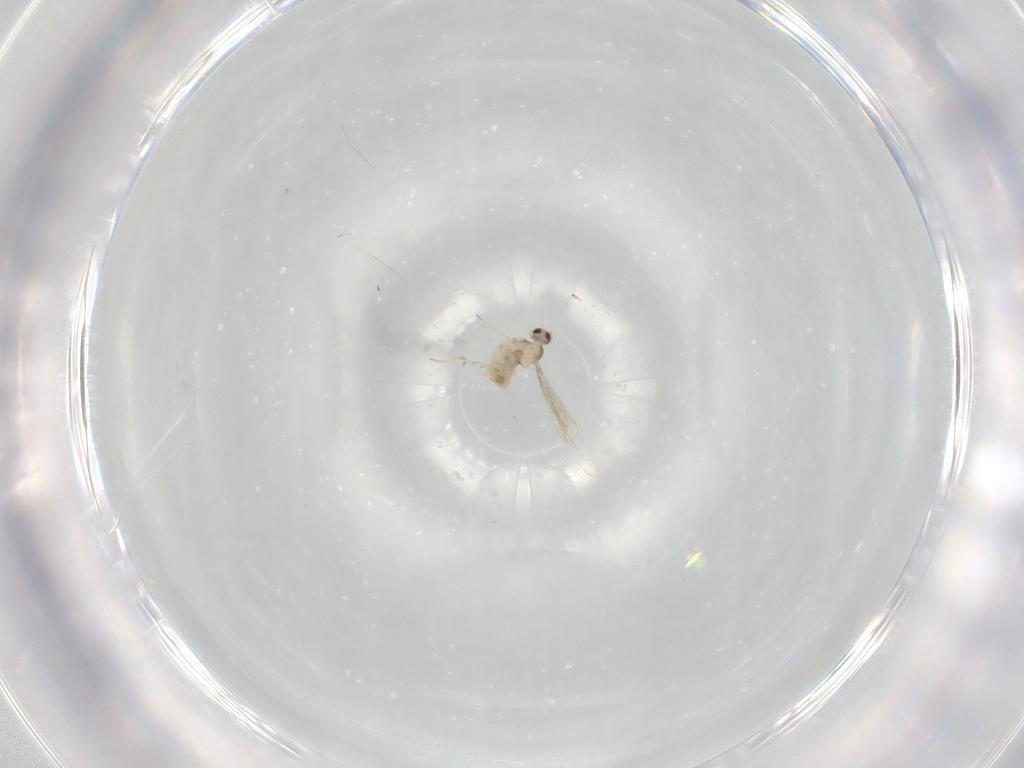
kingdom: Animalia
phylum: Arthropoda
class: Insecta
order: Diptera
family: Cecidomyiidae
